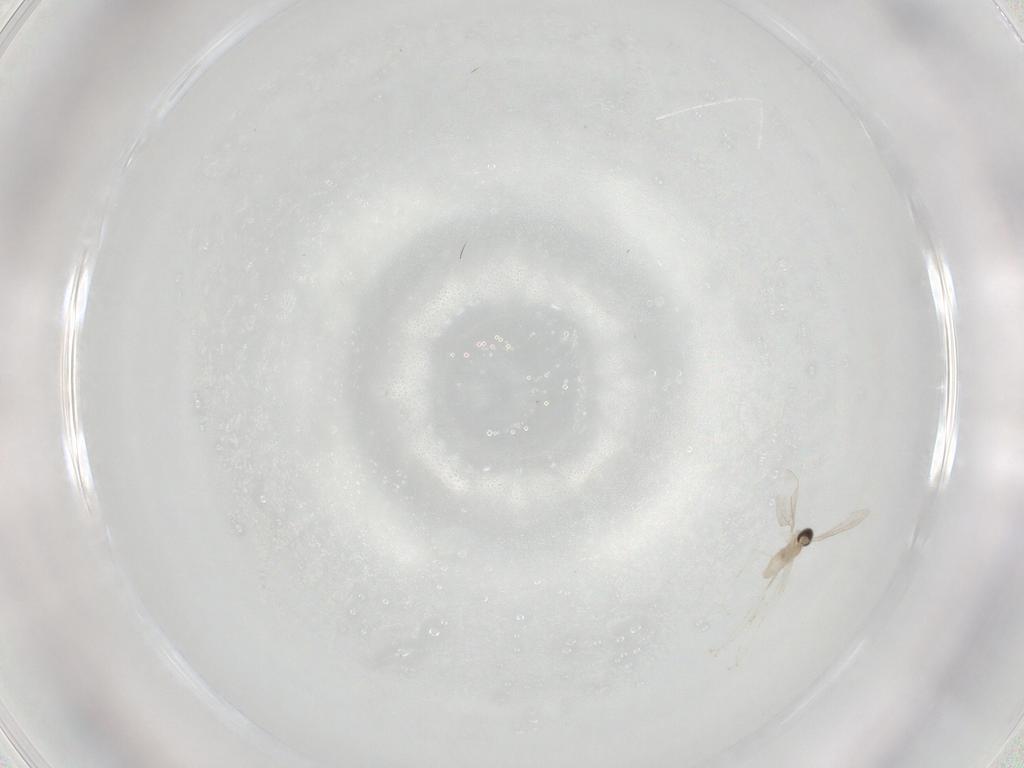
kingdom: Animalia
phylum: Arthropoda
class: Insecta
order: Diptera
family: Cecidomyiidae
